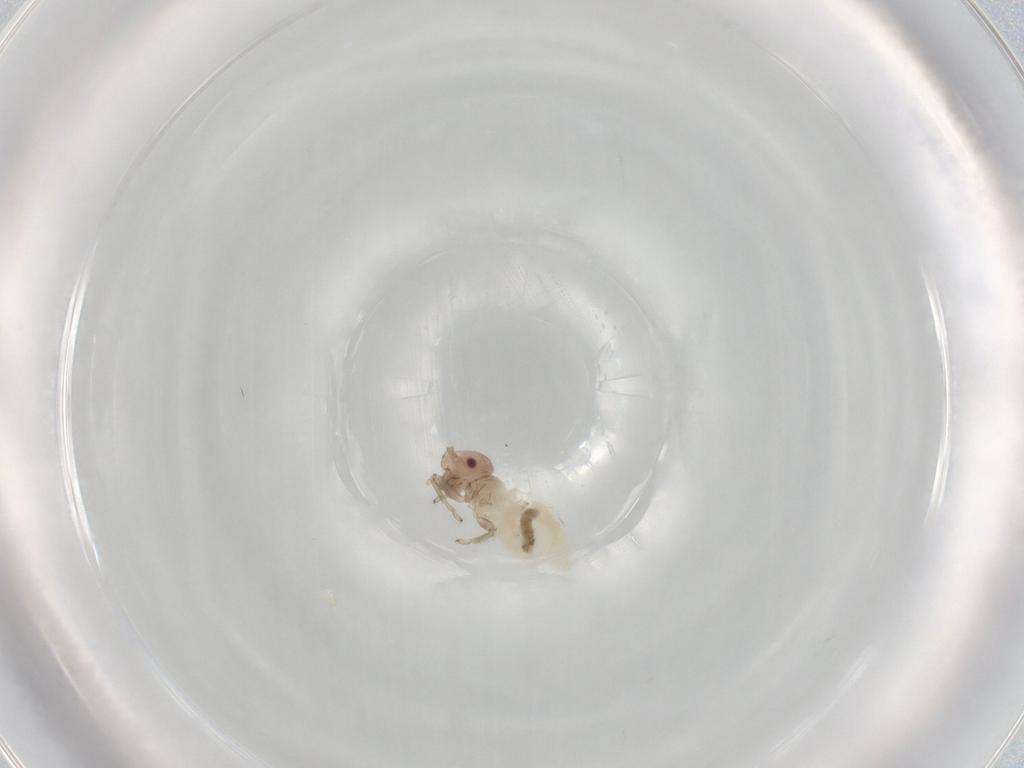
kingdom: Animalia
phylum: Arthropoda
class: Insecta
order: Psocodea
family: Stenopsocidae
